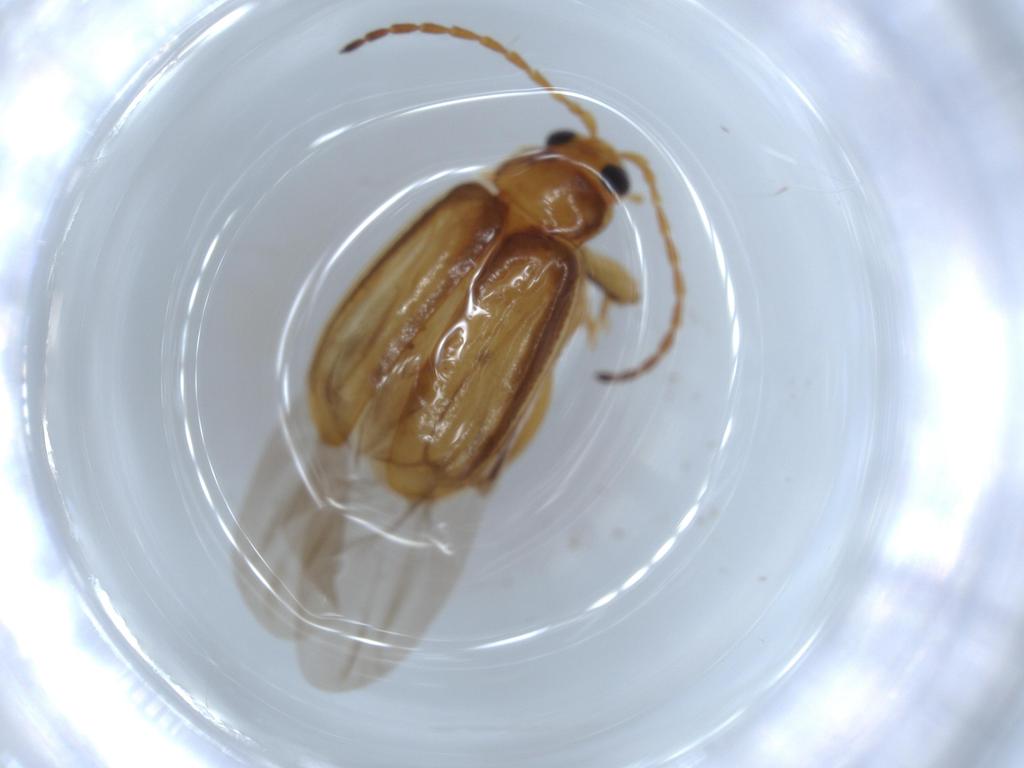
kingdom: Animalia
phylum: Arthropoda
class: Insecta
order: Coleoptera
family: Chrysomelidae
